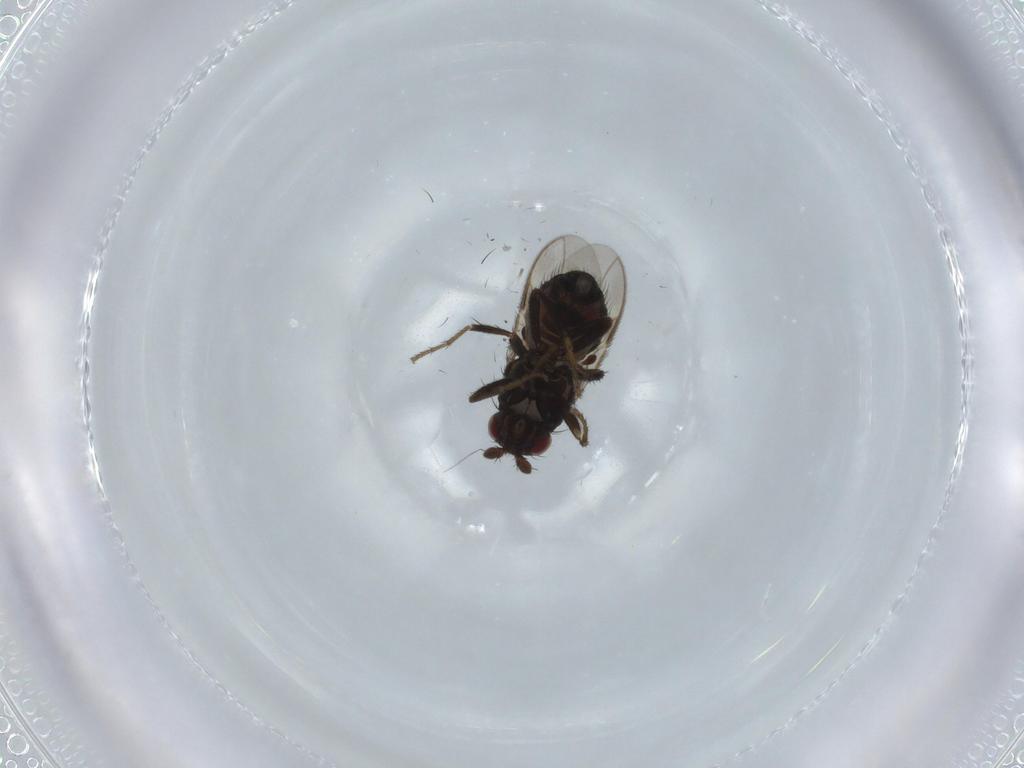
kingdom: Animalia
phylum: Arthropoda
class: Insecta
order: Diptera
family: Sphaeroceridae
